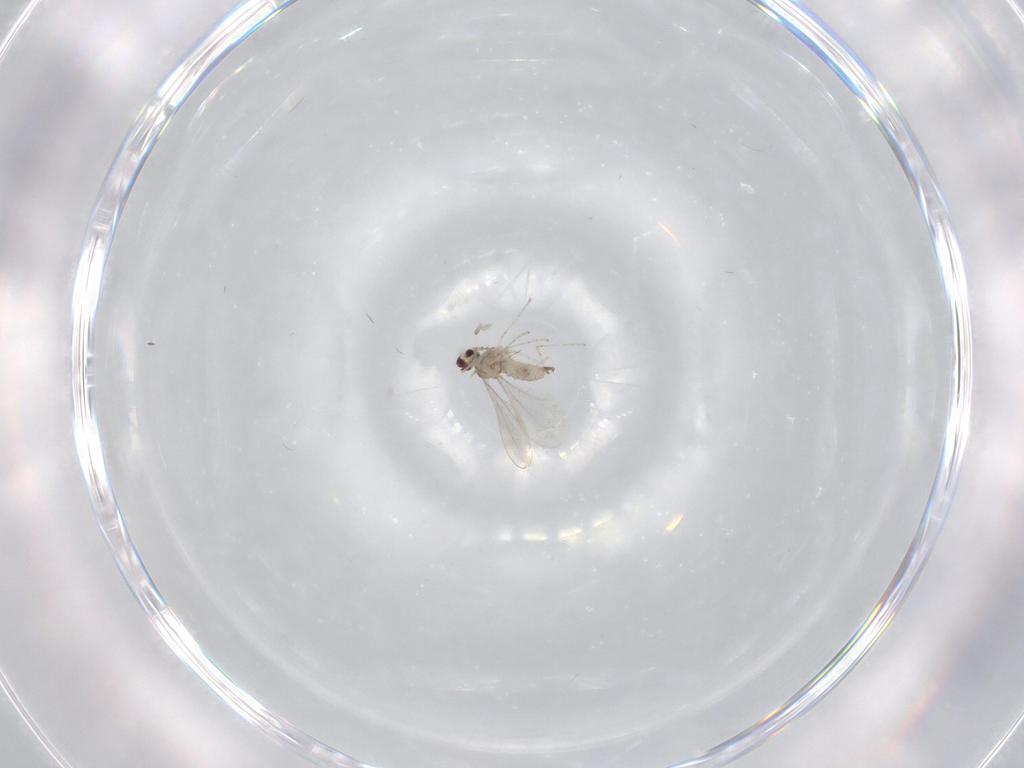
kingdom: Animalia
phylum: Arthropoda
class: Insecta
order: Diptera
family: Cecidomyiidae
